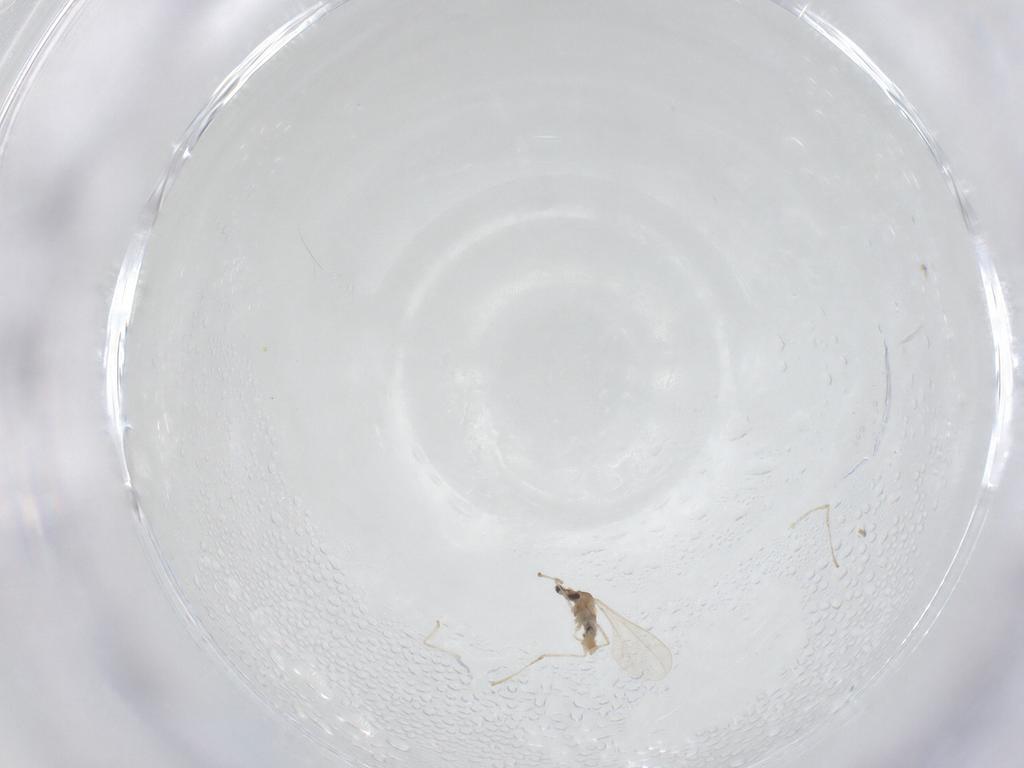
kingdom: Animalia
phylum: Arthropoda
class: Insecta
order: Diptera
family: Cecidomyiidae
